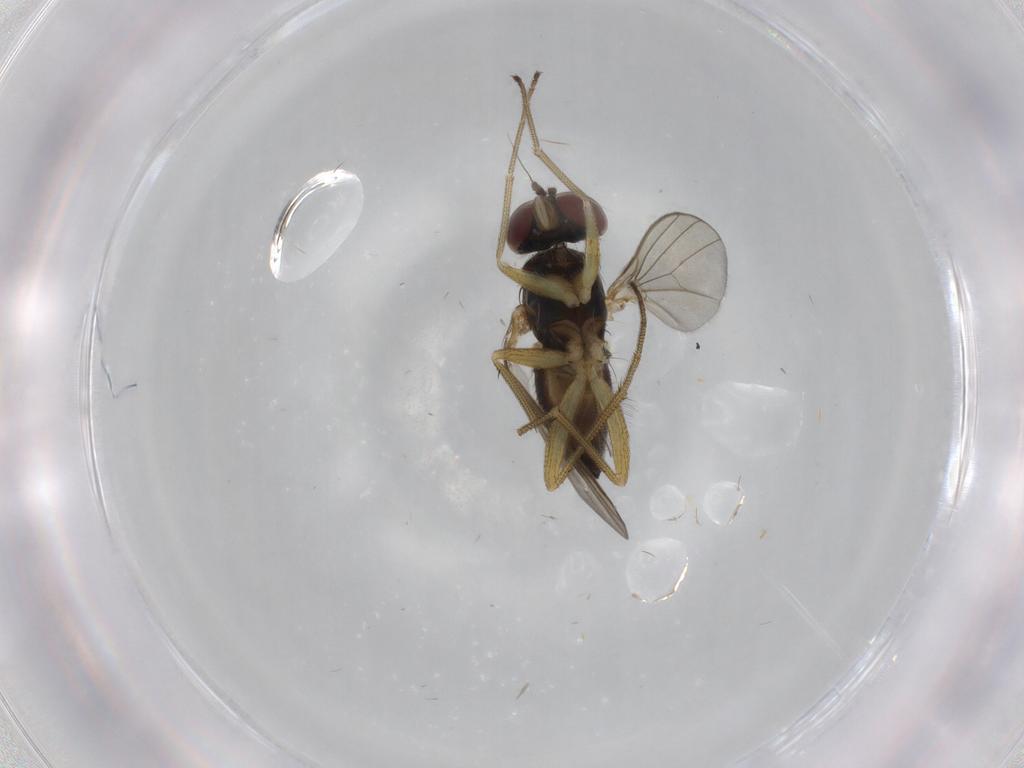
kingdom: Animalia
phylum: Arthropoda
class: Insecta
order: Diptera
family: Dolichopodidae
